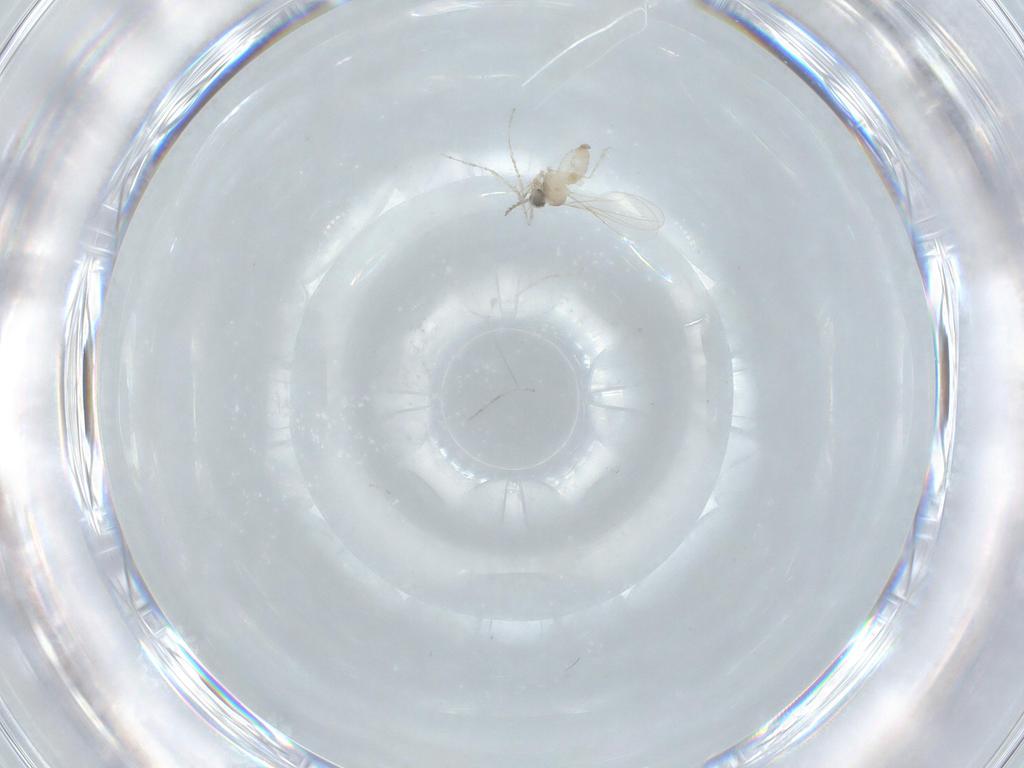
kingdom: Animalia
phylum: Arthropoda
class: Insecta
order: Diptera
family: Cecidomyiidae
